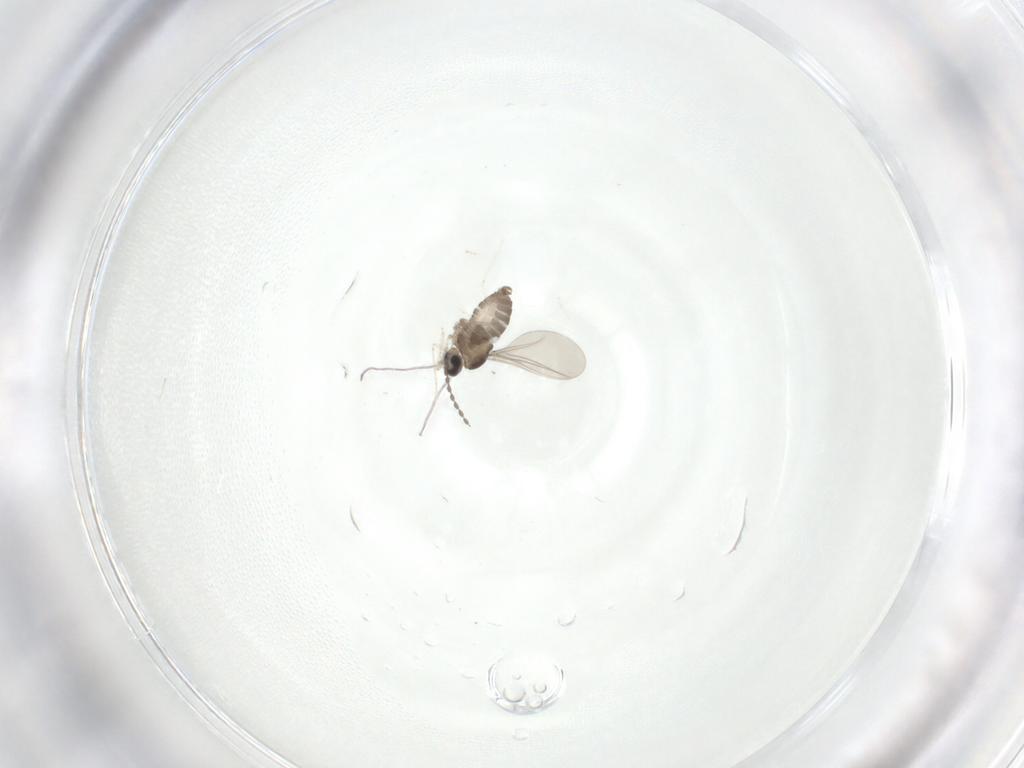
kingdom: Animalia
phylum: Arthropoda
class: Insecta
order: Diptera
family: Cecidomyiidae
